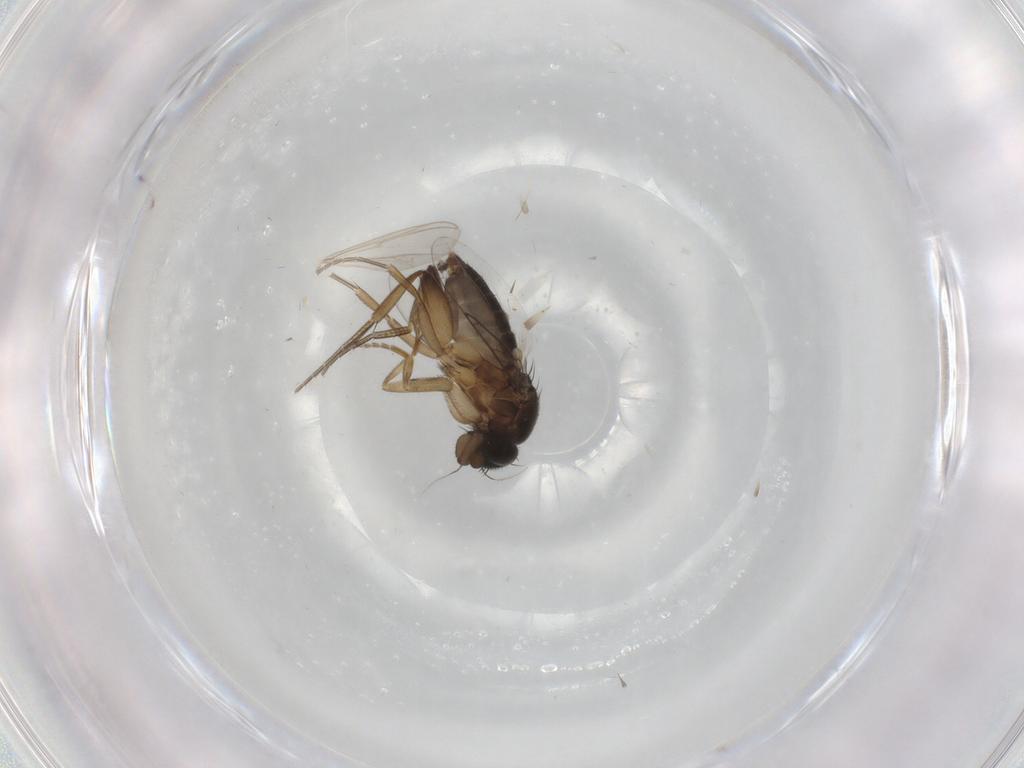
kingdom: Animalia
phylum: Arthropoda
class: Insecta
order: Diptera
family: Phoridae
